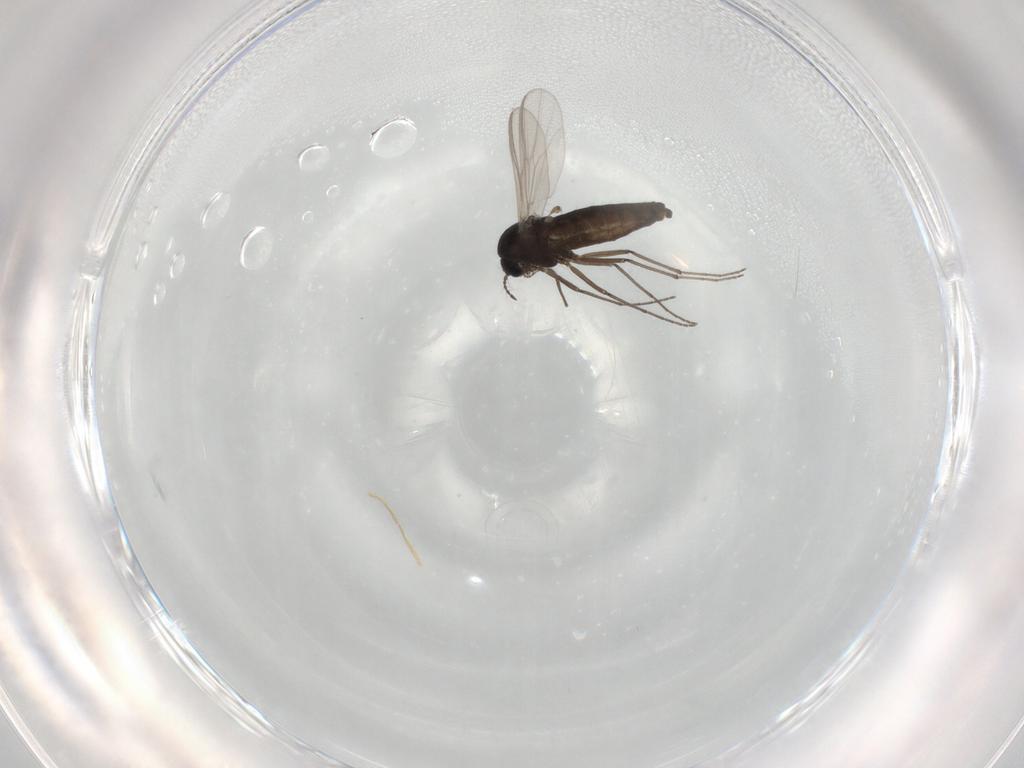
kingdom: Animalia
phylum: Arthropoda
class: Insecta
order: Diptera
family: Chironomidae
